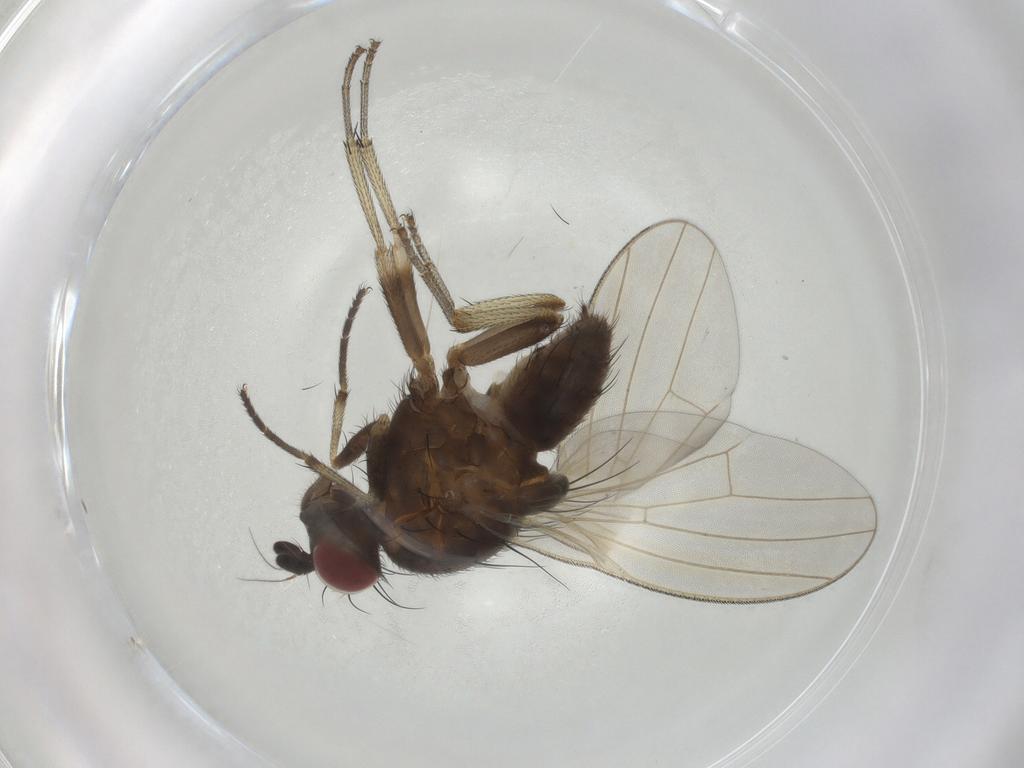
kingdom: Animalia
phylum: Arthropoda
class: Insecta
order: Diptera
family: Lauxaniidae
